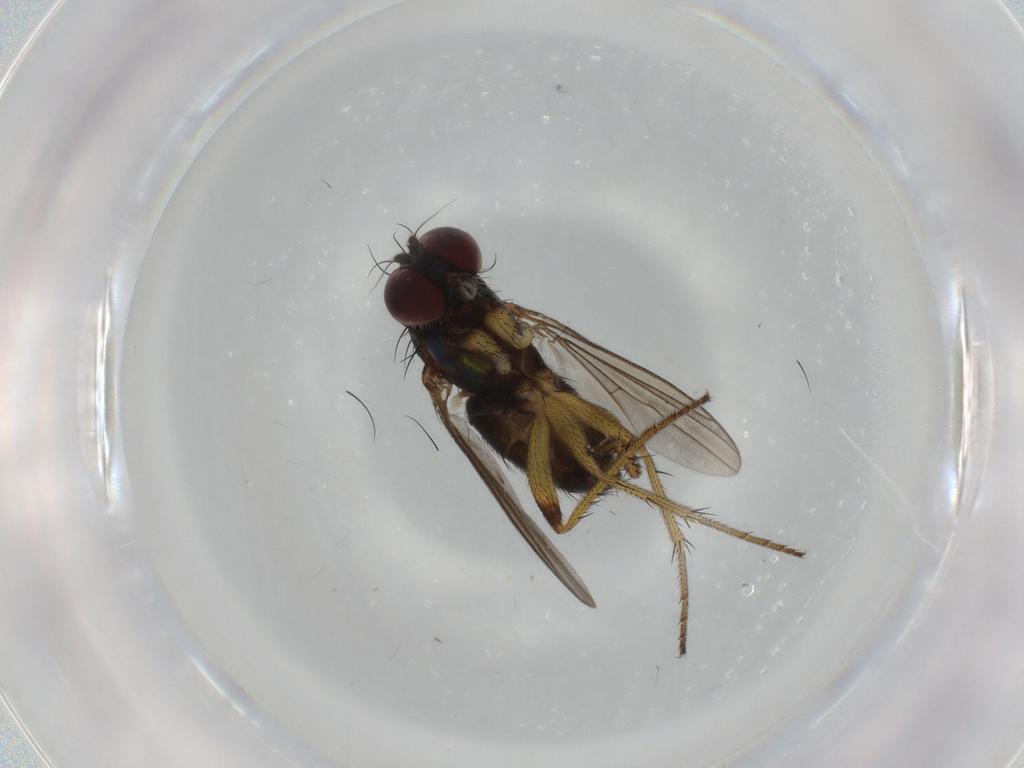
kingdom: Animalia
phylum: Arthropoda
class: Insecta
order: Diptera
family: Dolichopodidae
